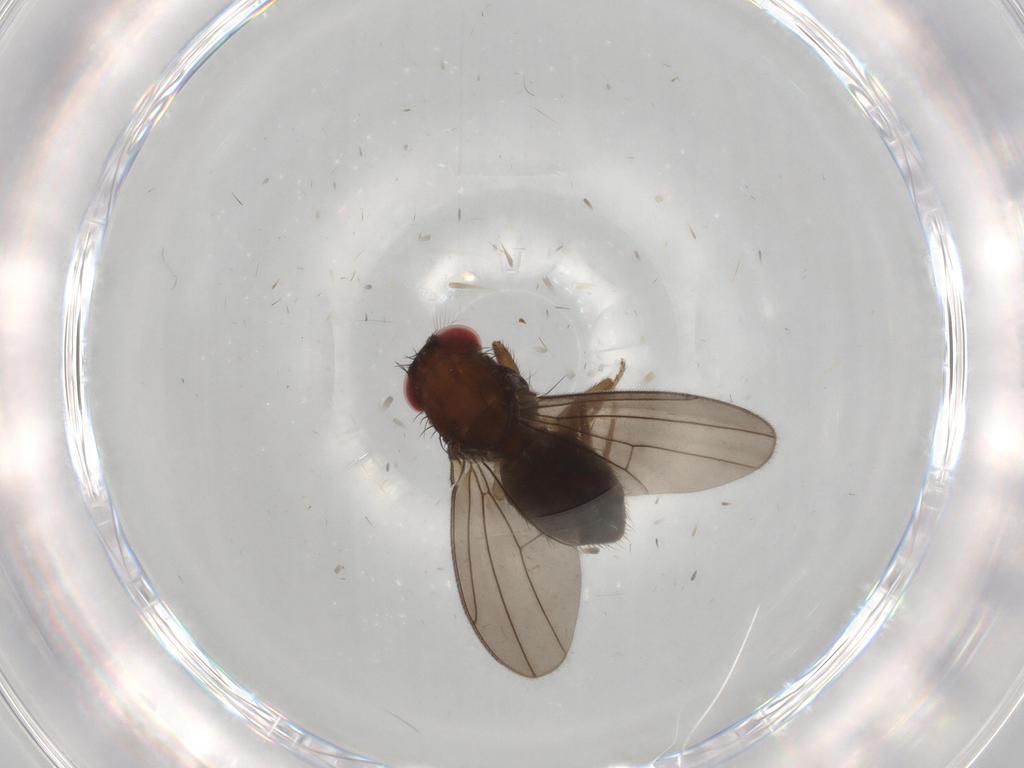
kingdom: Animalia
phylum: Arthropoda
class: Insecta
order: Diptera
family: Drosophilidae
